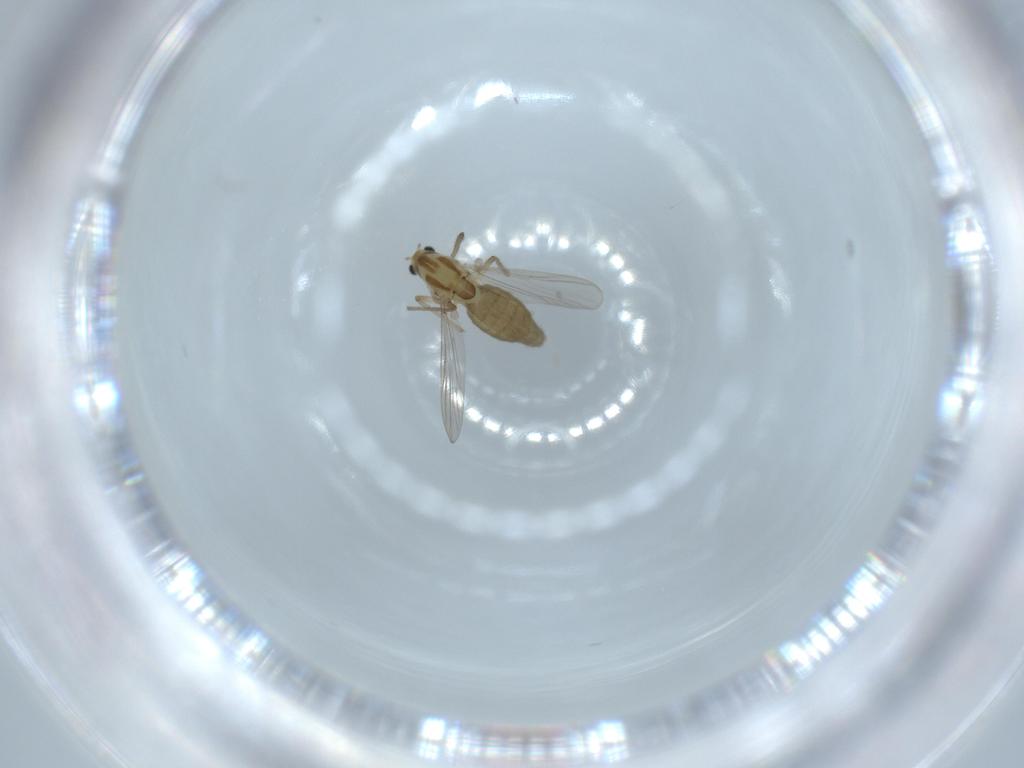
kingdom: Animalia
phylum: Arthropoda
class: Insecta
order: Diptera
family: Chironomidae
